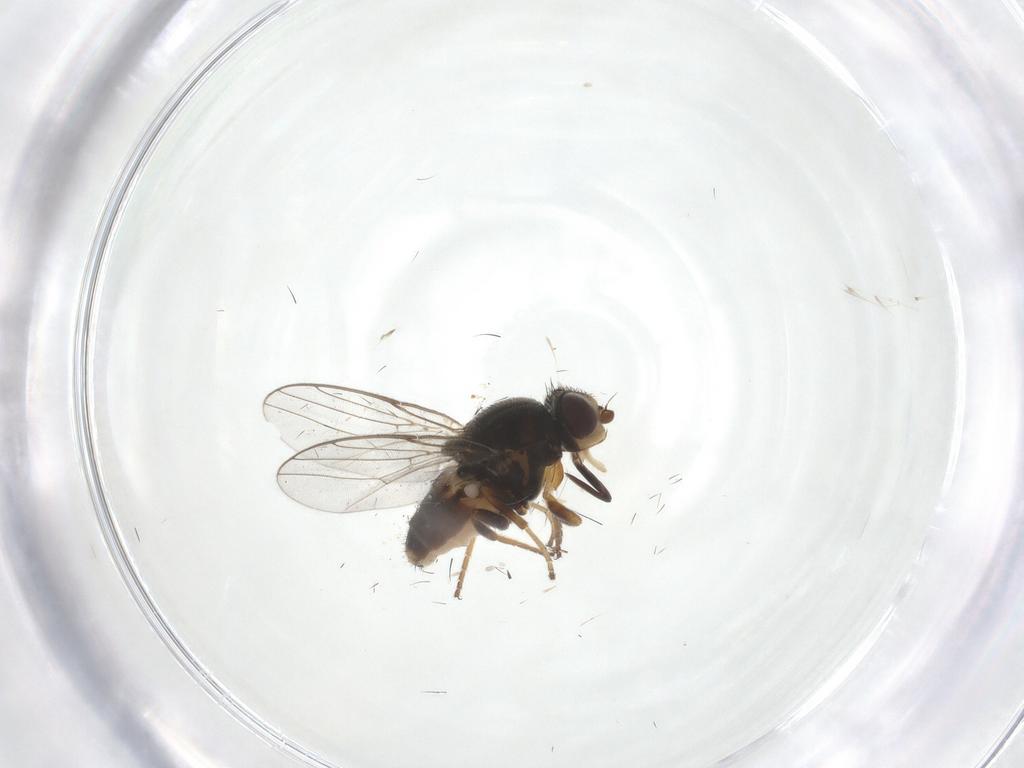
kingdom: Animalia
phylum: Arthropoda
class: Insecta
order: Diptera
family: Chloropidae
